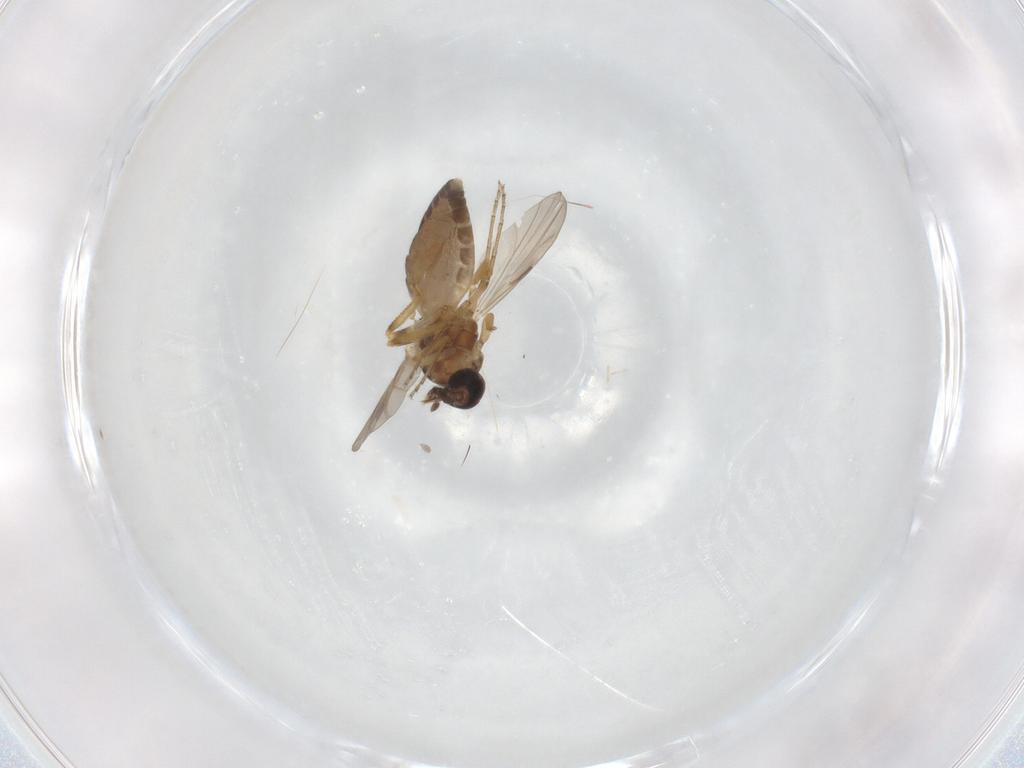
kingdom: Animalia
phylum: Arthropoda
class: Insecta
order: Diptera
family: Ceratopogonidae
